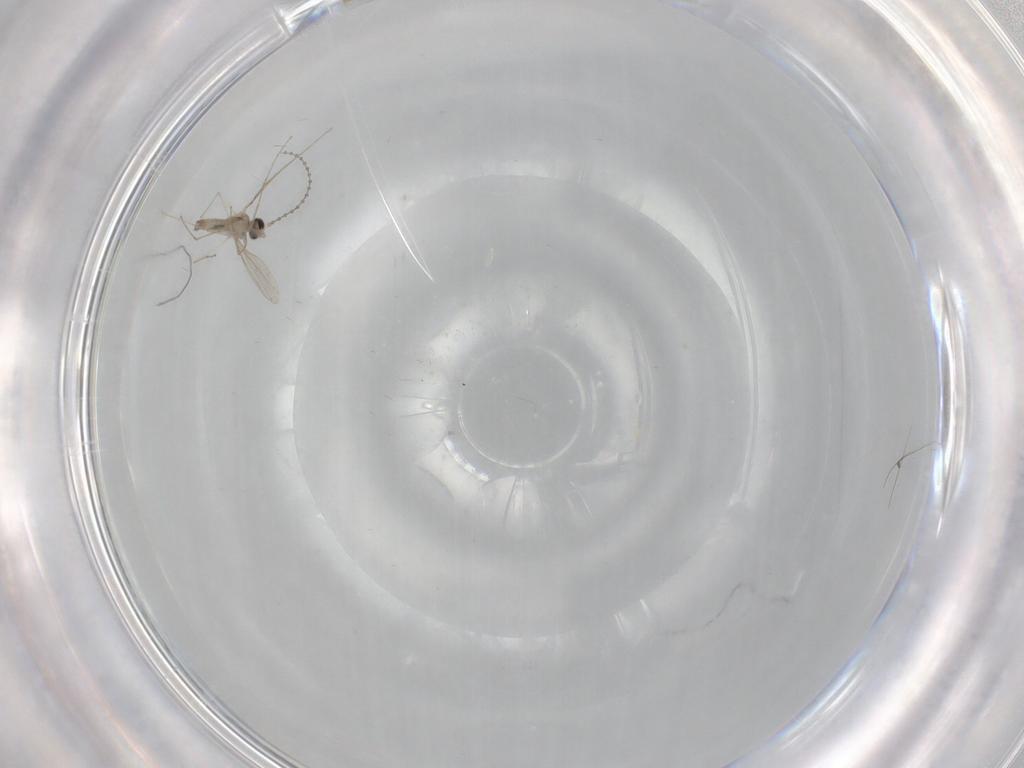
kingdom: Animalia
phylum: Arthropoda
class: Insecta
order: Diptera
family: Cecidomyiidae
